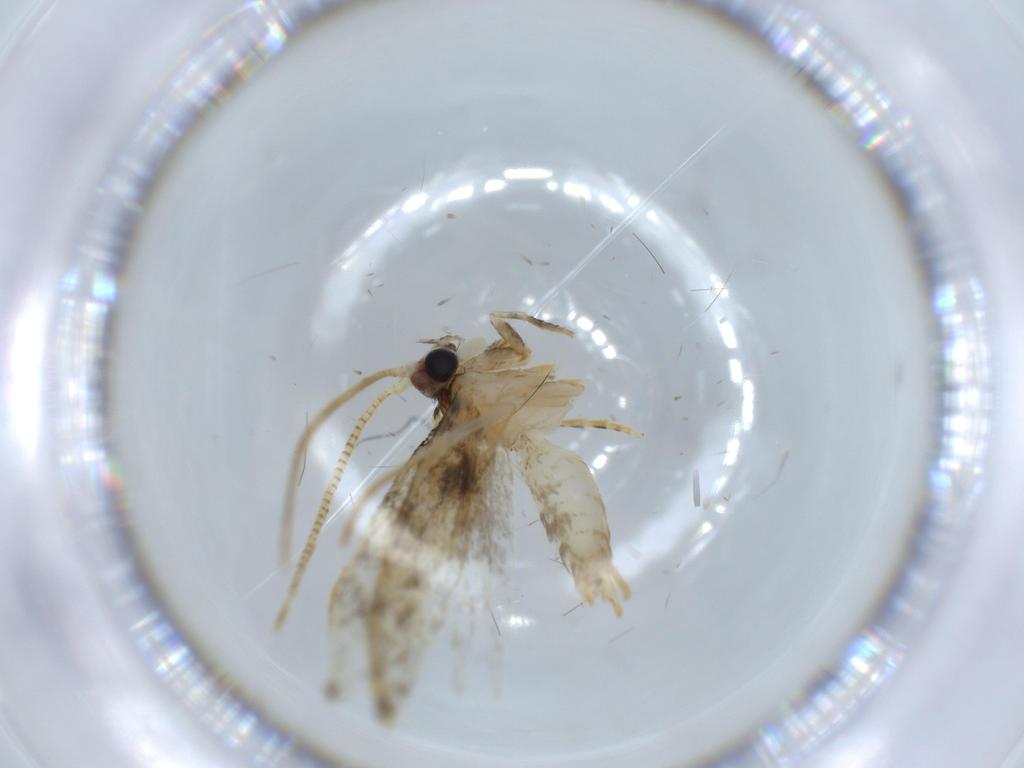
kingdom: Animalia
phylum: Arthropoda
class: Insecta
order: Lepidoptera
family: Tineidae
